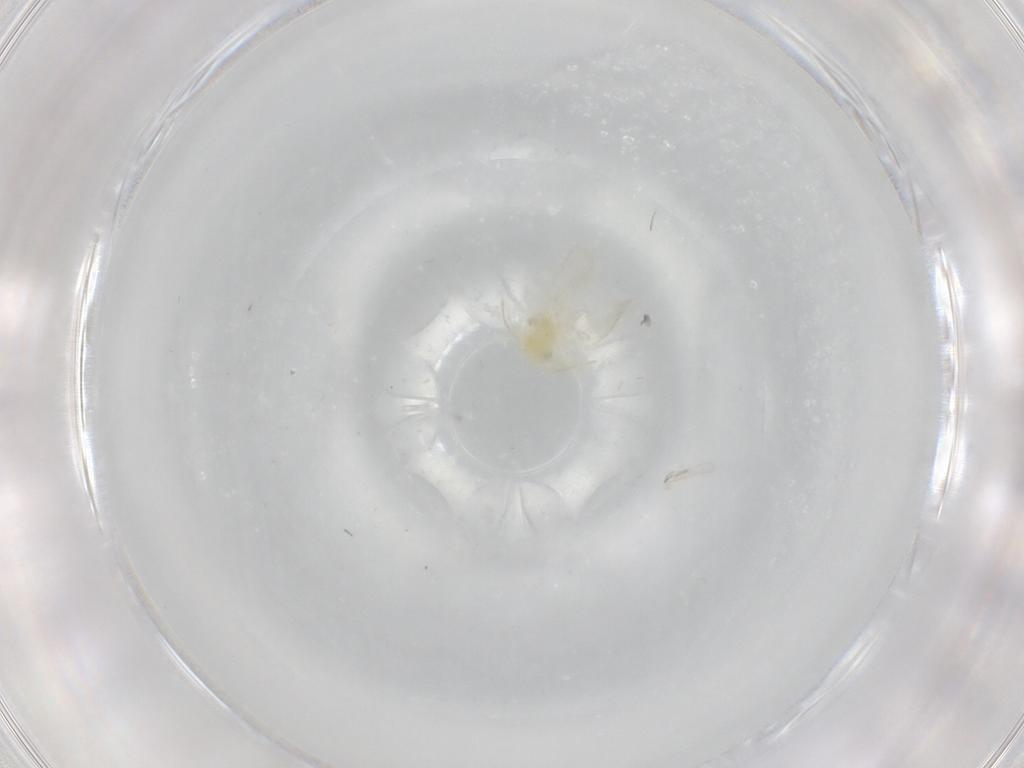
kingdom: Animalia
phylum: Arthropoda
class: Insecta
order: Hemiptera
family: Aleyrodidae
